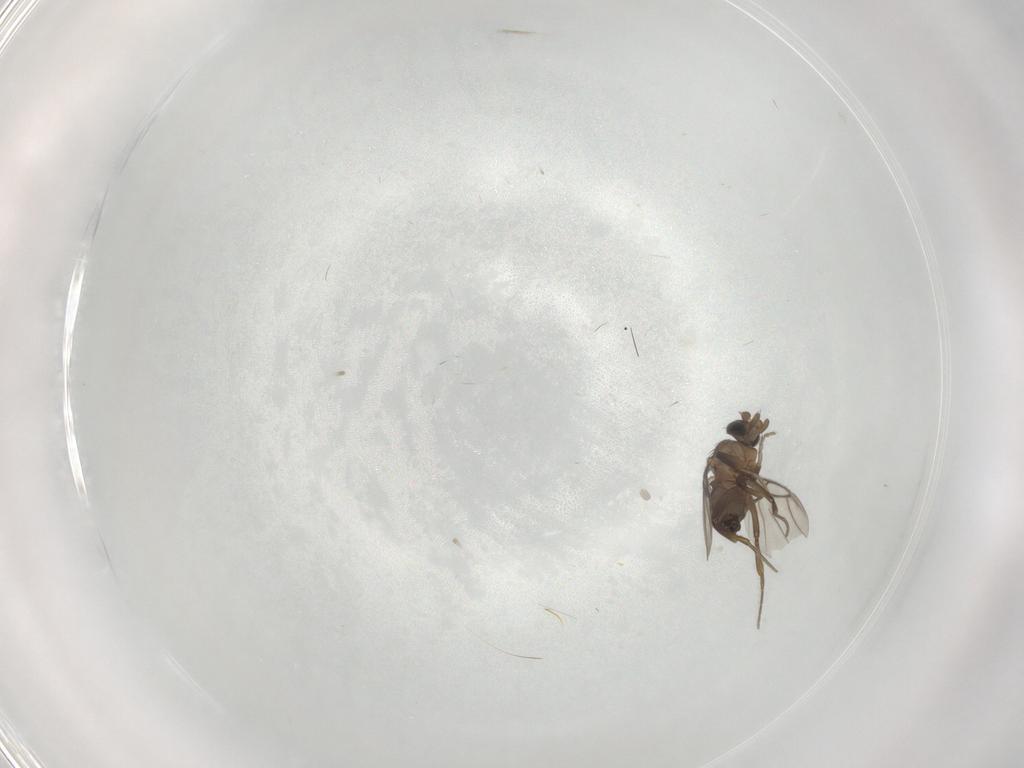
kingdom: Animalia
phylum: Arthropoda
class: Insecta
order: Diptera
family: Phoridae
